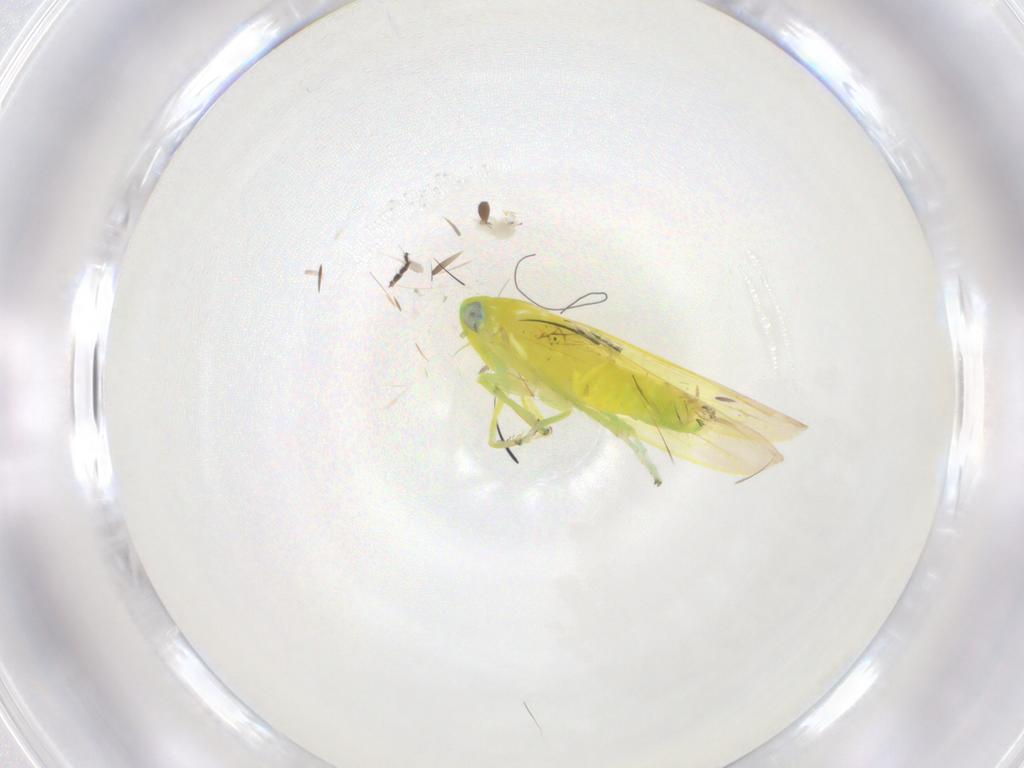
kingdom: Animalia
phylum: Arthropoda
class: Insecta
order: Hemiptera
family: Cicadellidae
